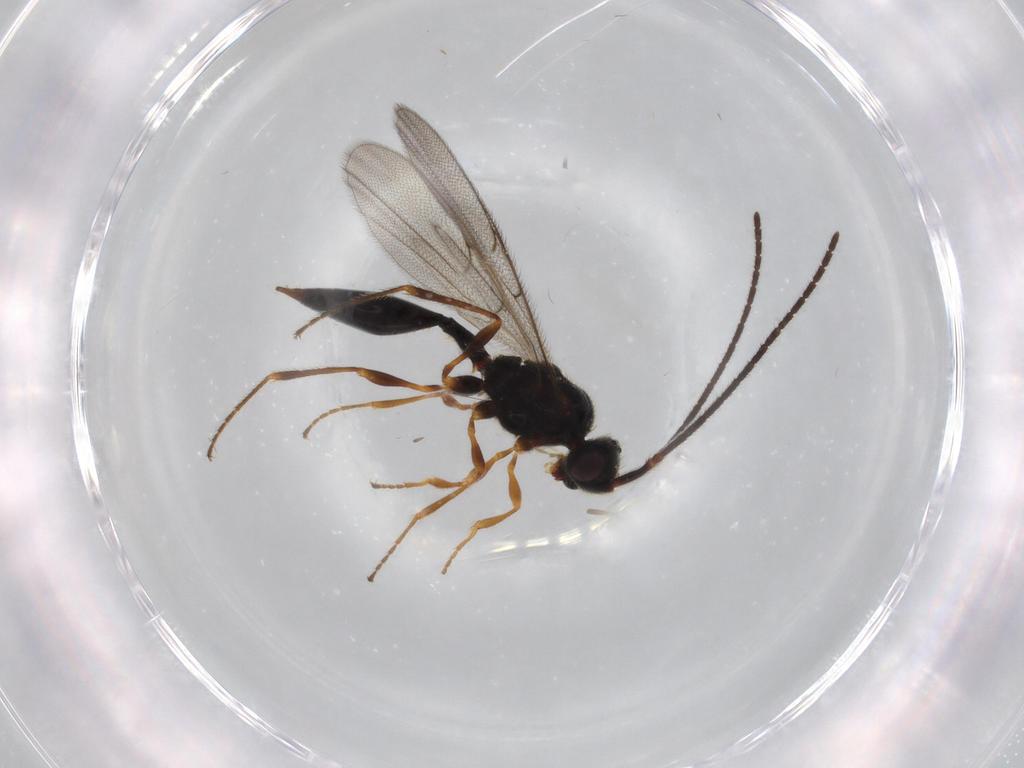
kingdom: Animalia
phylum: Arthropoda
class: Insecta
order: Hymenoptera
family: Diapriidae
